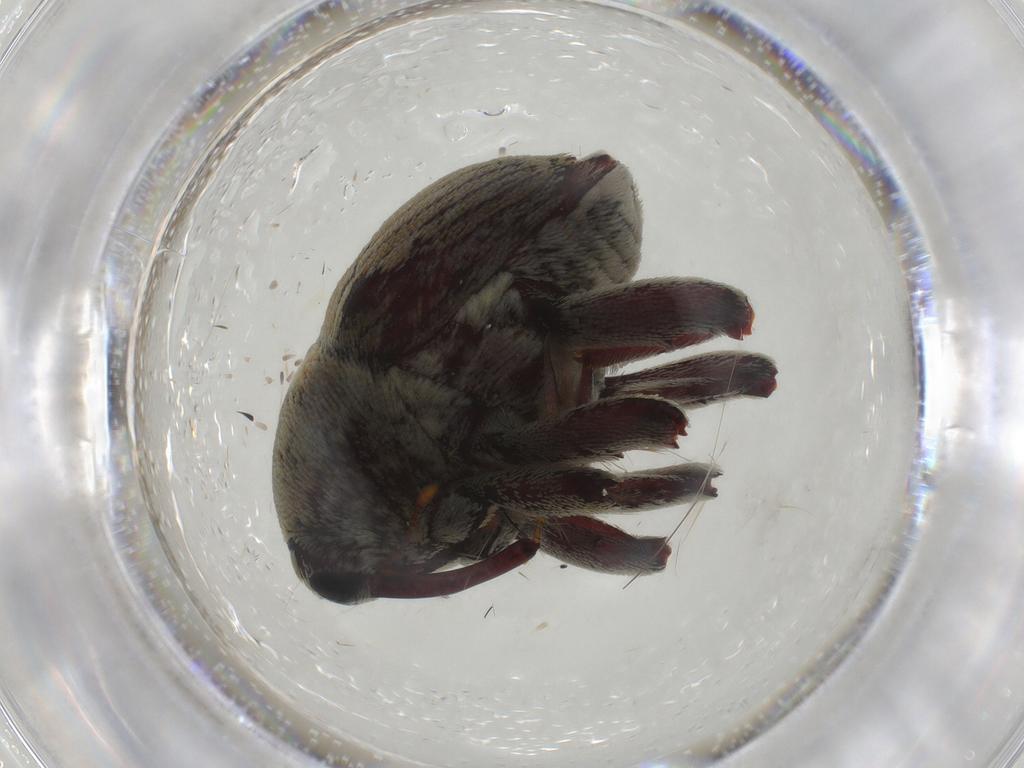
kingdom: Animalia
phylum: Arthropoda
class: Insecta
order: Coleoptera
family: Curculionidae
